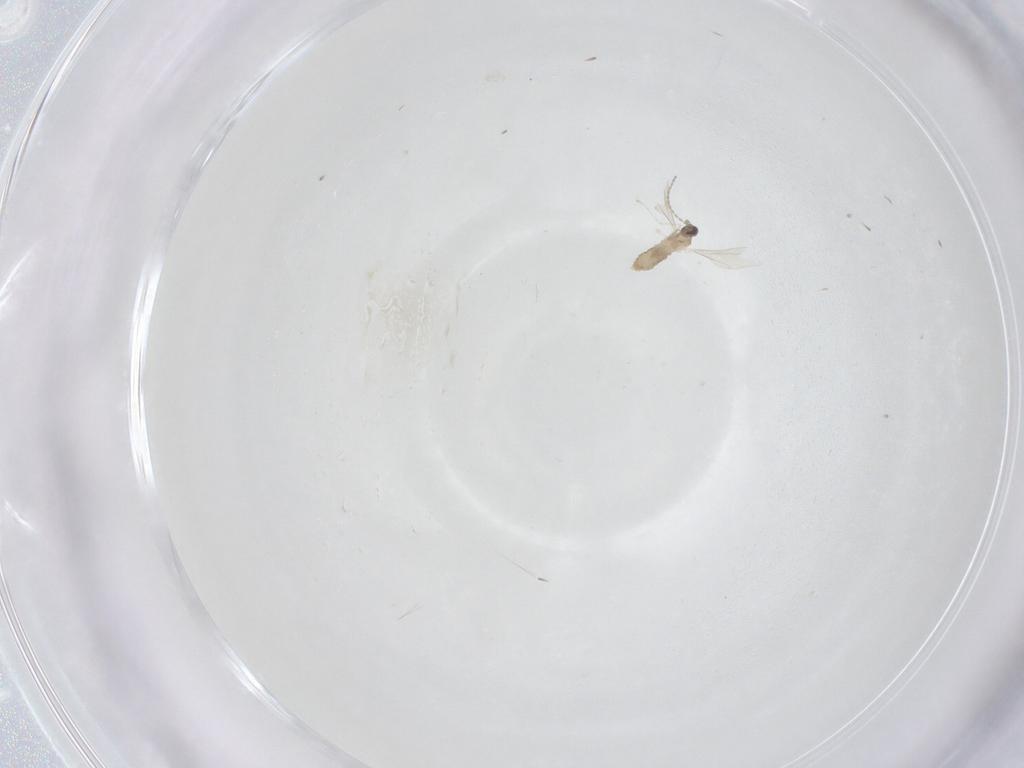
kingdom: Animalia
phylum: Arthropoda
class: Insecta
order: Diptera
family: Cecidomyiidae
